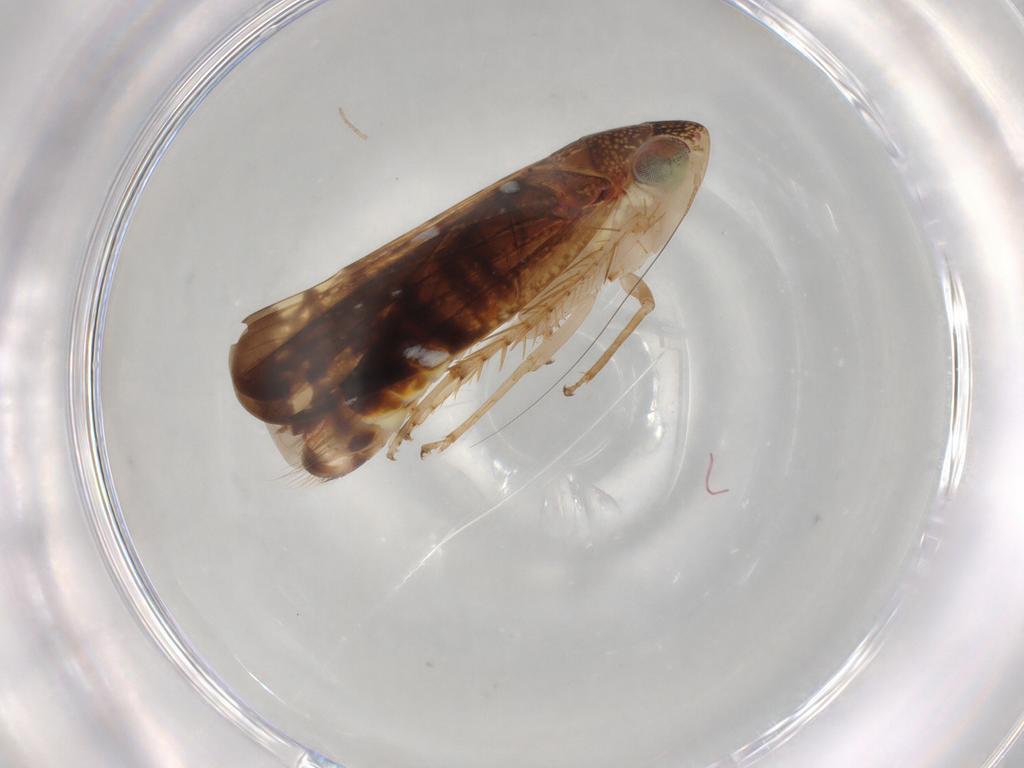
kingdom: Animalia
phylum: Arthropoda
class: Insecta
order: Hemiptera
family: Cicadellidae
